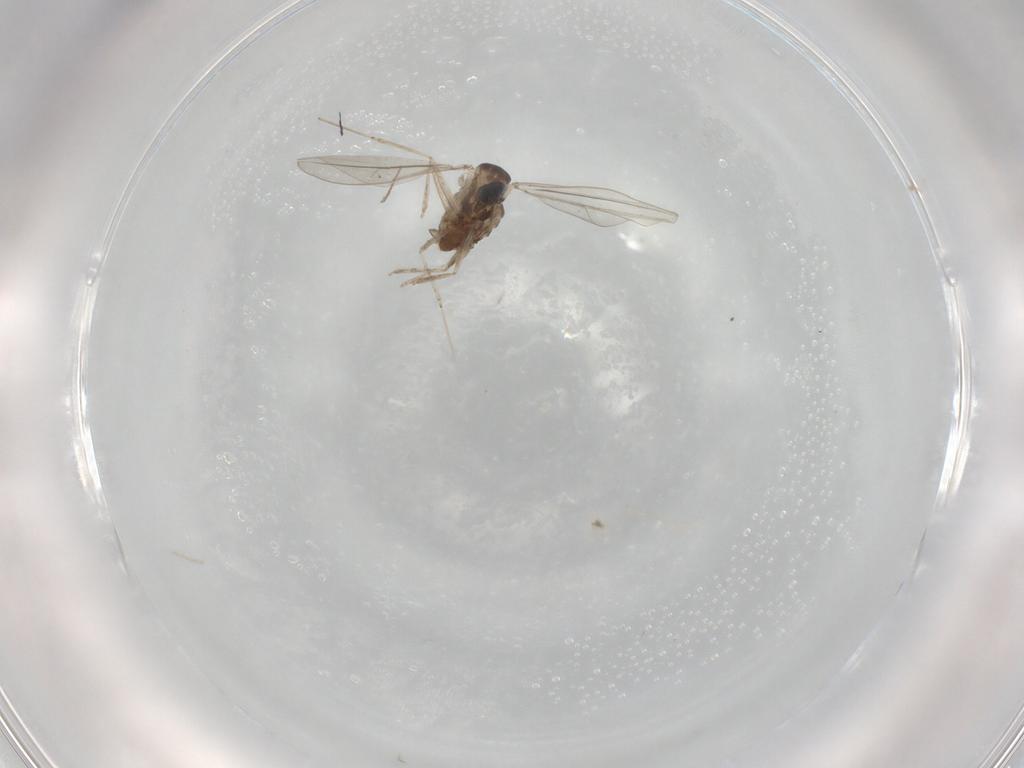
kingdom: Animalia
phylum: Arthropoda
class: Insecta
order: Diptera
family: Cecidomyiidae
